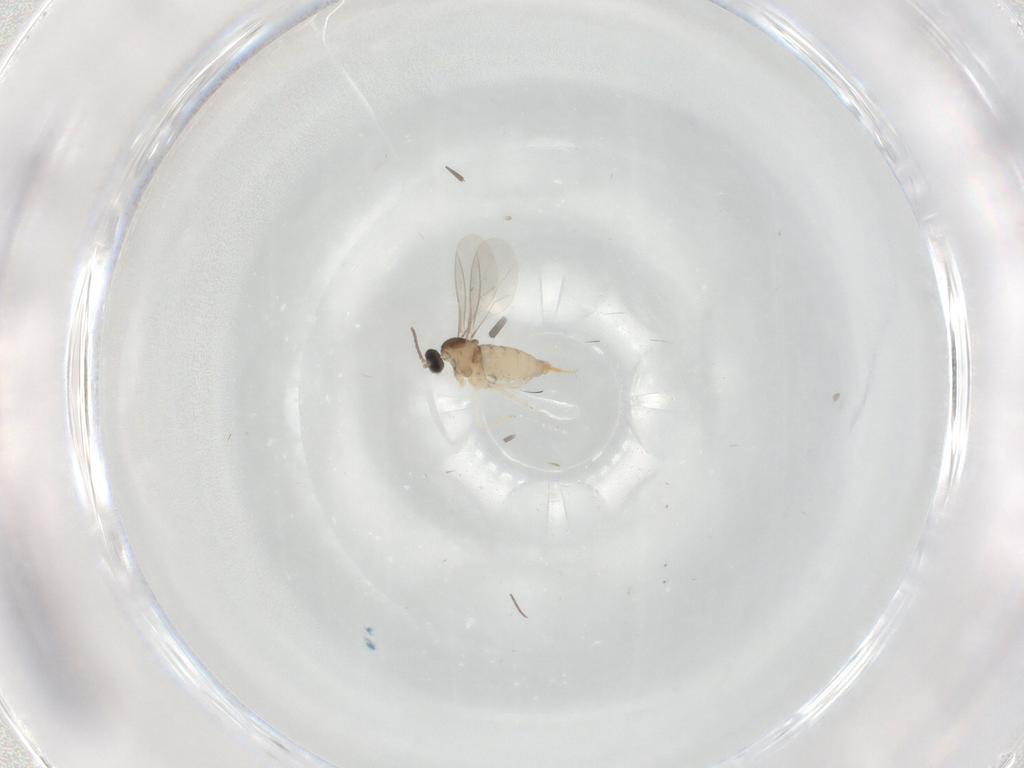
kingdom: Animalia
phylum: Arthropoda
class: Insecta
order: Diptera
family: Cecidomyiidae
